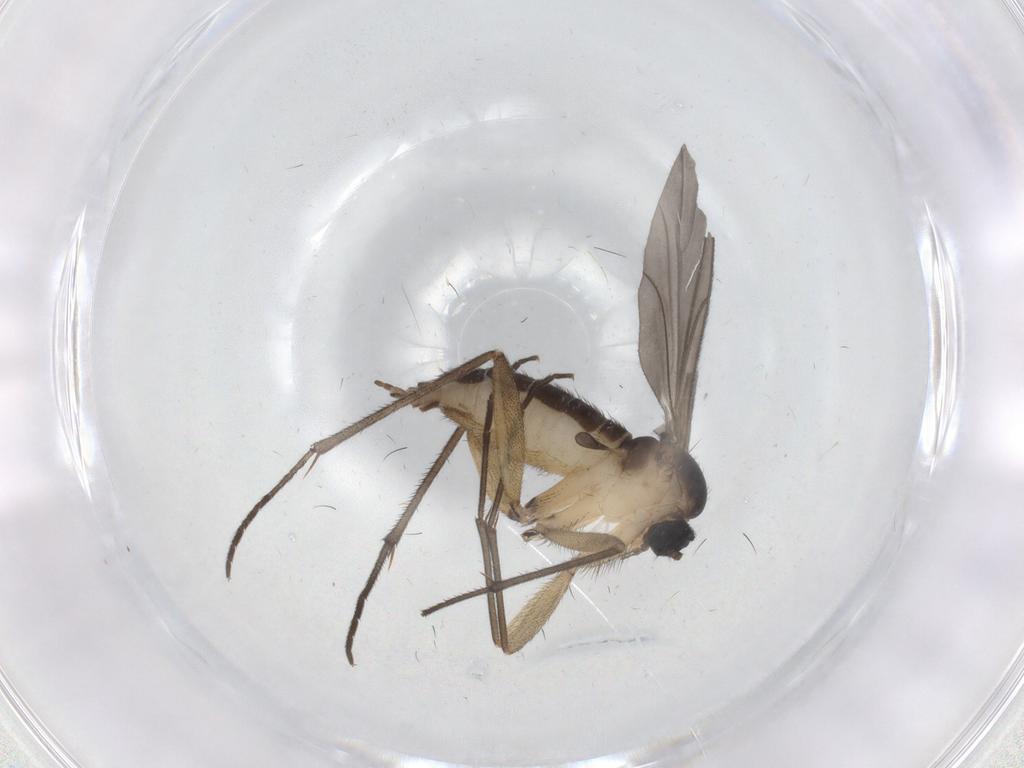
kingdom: Animalia
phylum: Arthropoda
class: Insecta
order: Diptera
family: Sciaridae
